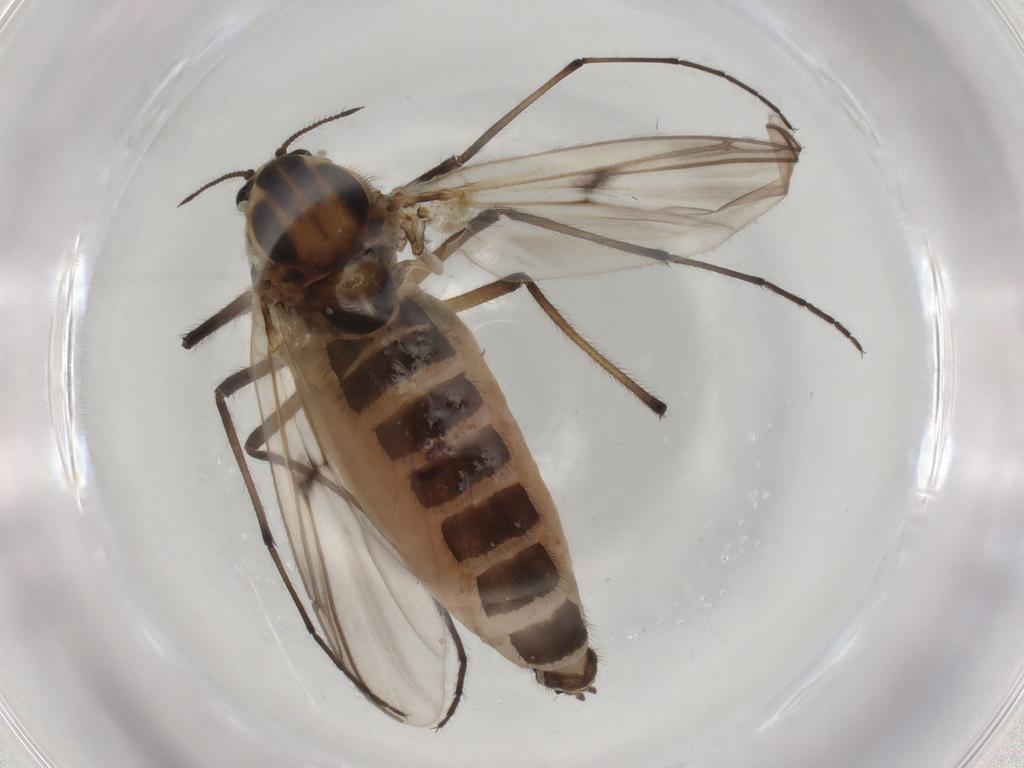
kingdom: Animalia
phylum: Arthropoda
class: Insecta
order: Diptera
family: Chironomidae
